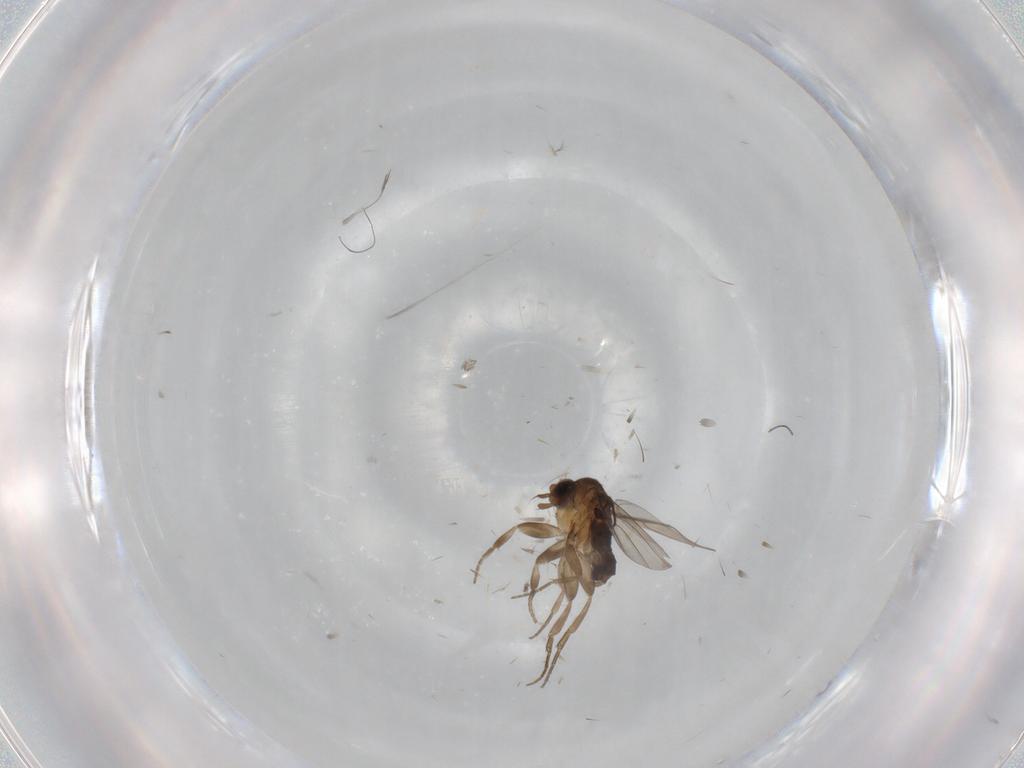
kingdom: Animalia
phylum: Arthropoda
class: Insecta
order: Diptera
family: Phoridae
